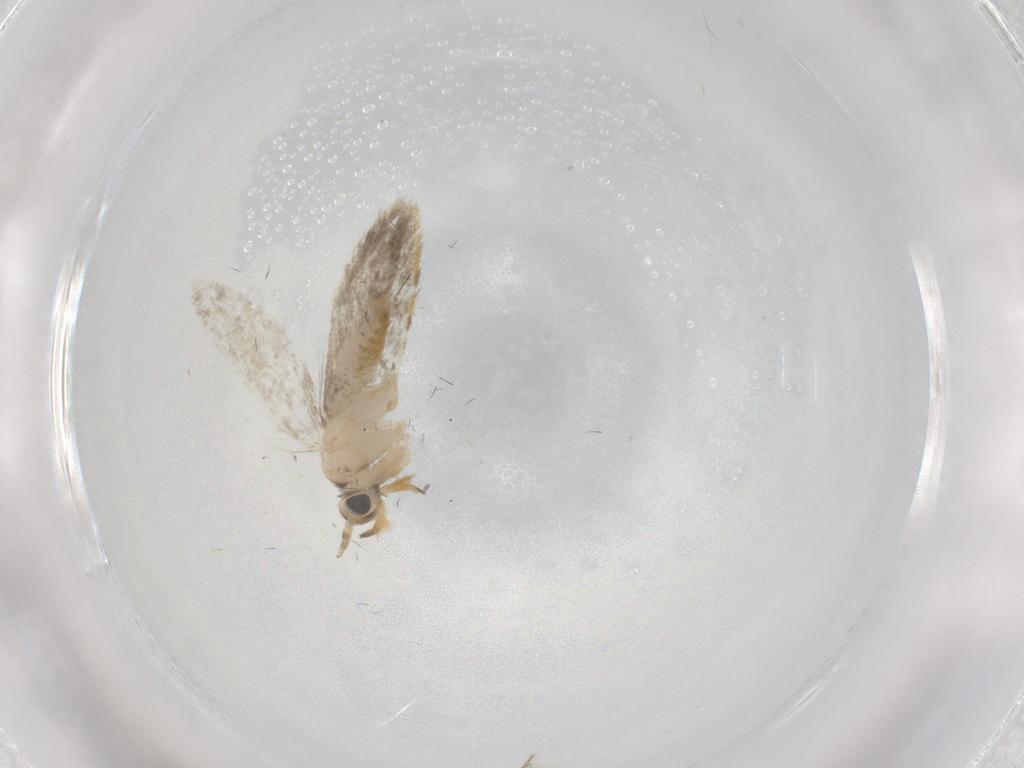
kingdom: Animalia
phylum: Arthropoda
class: Insecta
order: Lepidoptera
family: Psychidae
